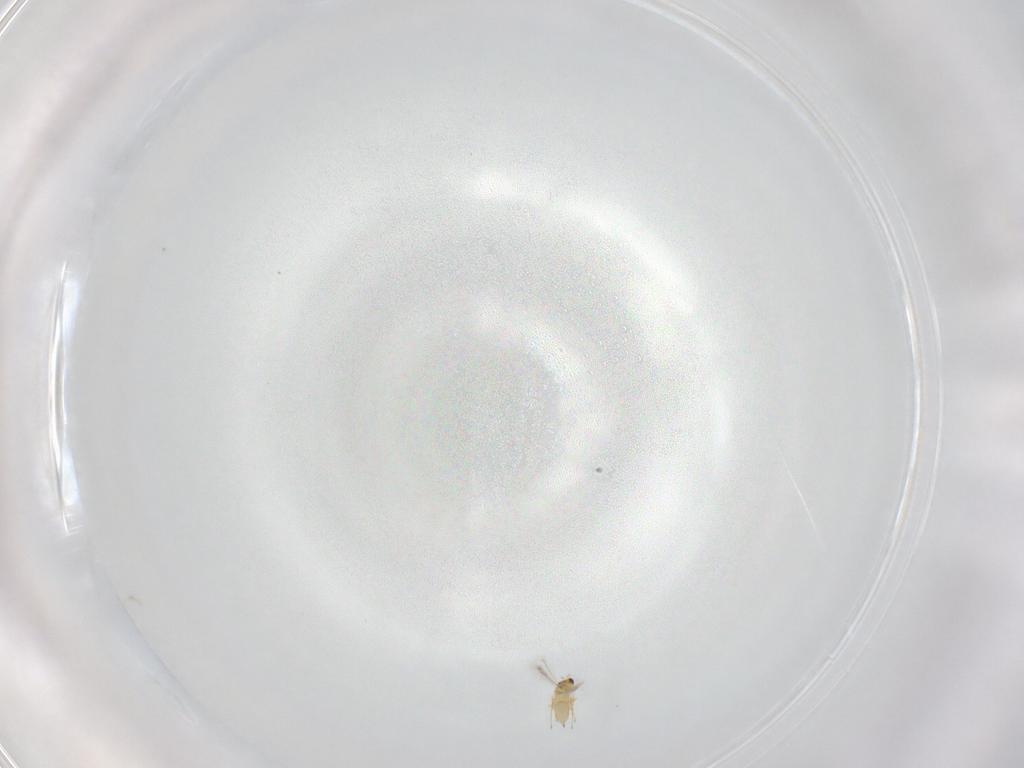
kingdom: Animalia
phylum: Arthropoda
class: Insecta
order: Hymenoptera
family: Mymaridae
